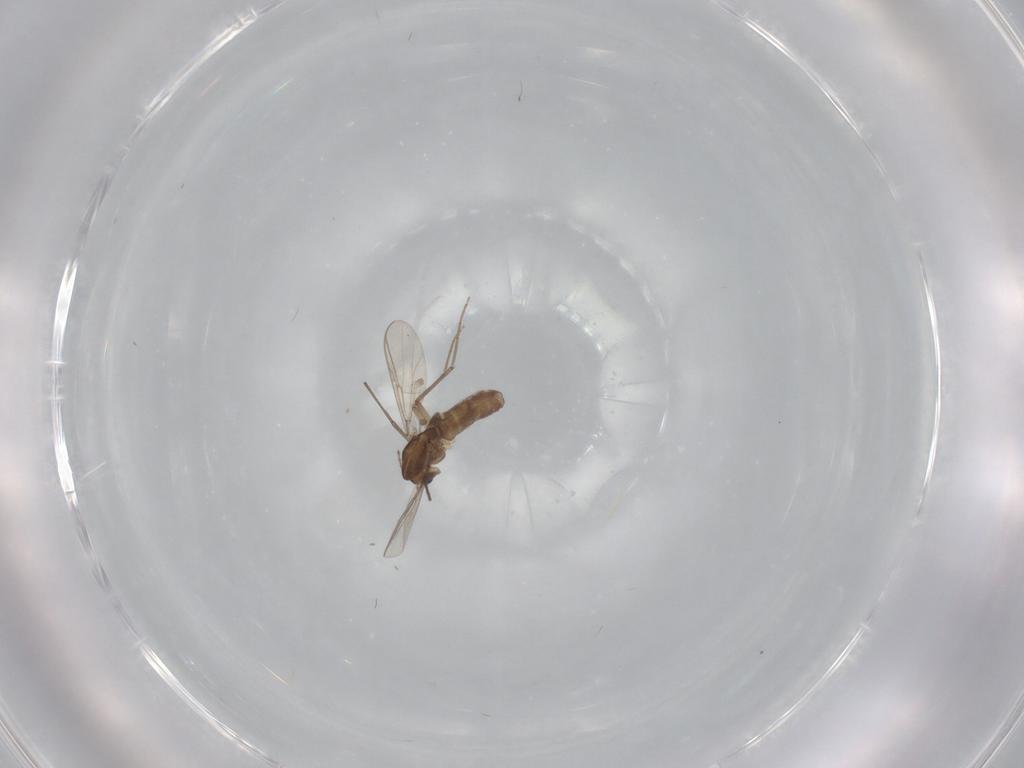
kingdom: Animalia
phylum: Arthropoda
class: Insecta
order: Diptera
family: Chironomidae
